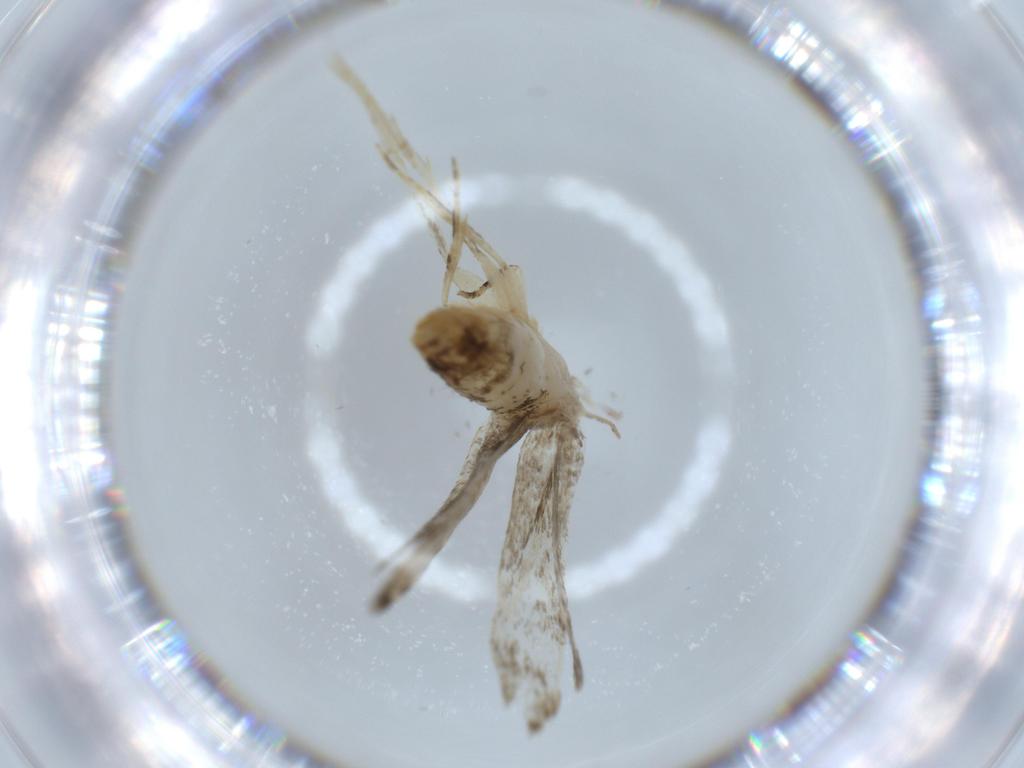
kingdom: Animalia
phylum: Arthropoda
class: Insecta
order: Lepidoptera
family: Tineidae
